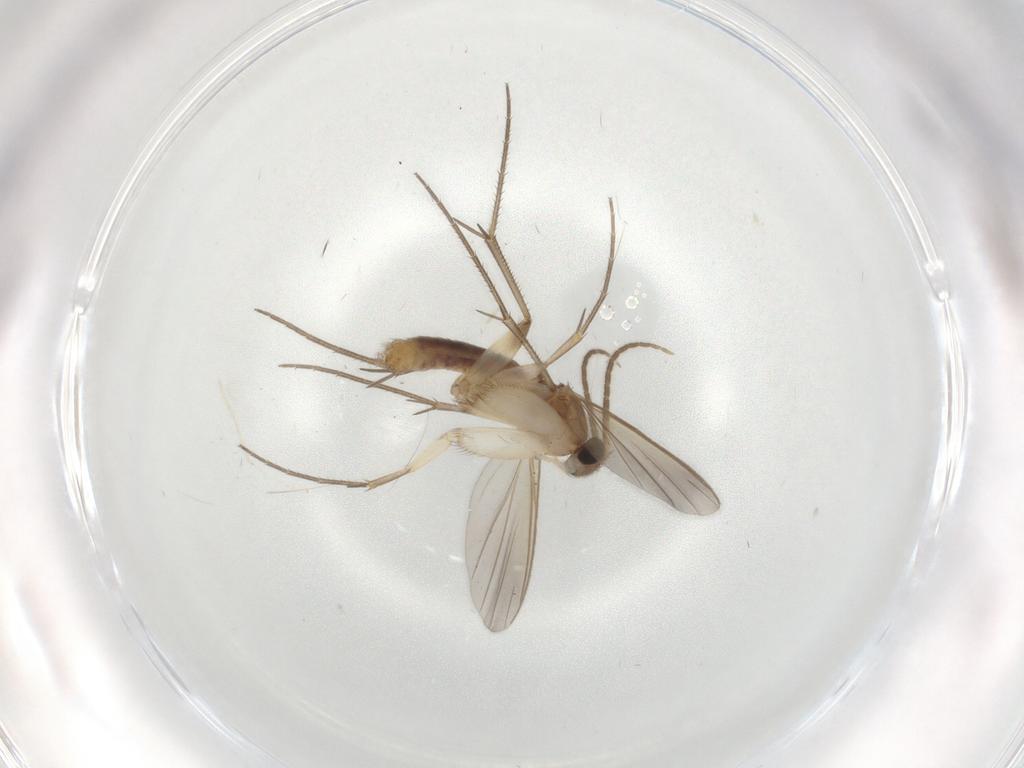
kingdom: Animalia
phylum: Arthropoda
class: Insecta
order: Diptera
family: Mycetophilidae
